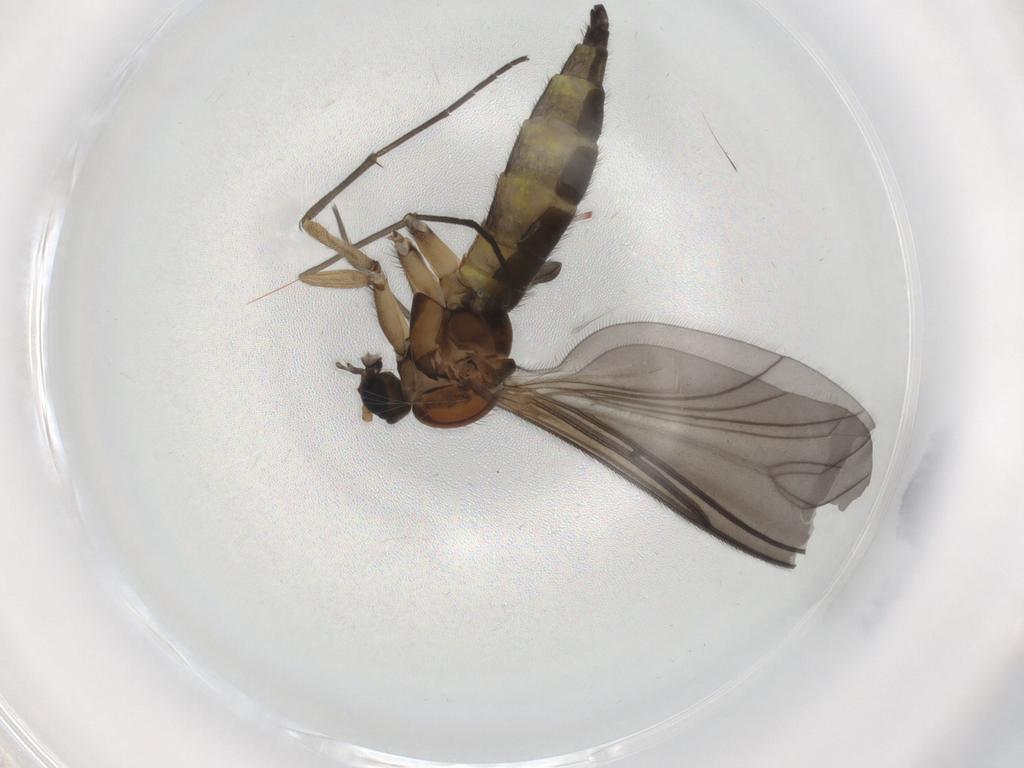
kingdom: Animalia
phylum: Arthropoda
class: Insecta
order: Diptera
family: Sciaridae
